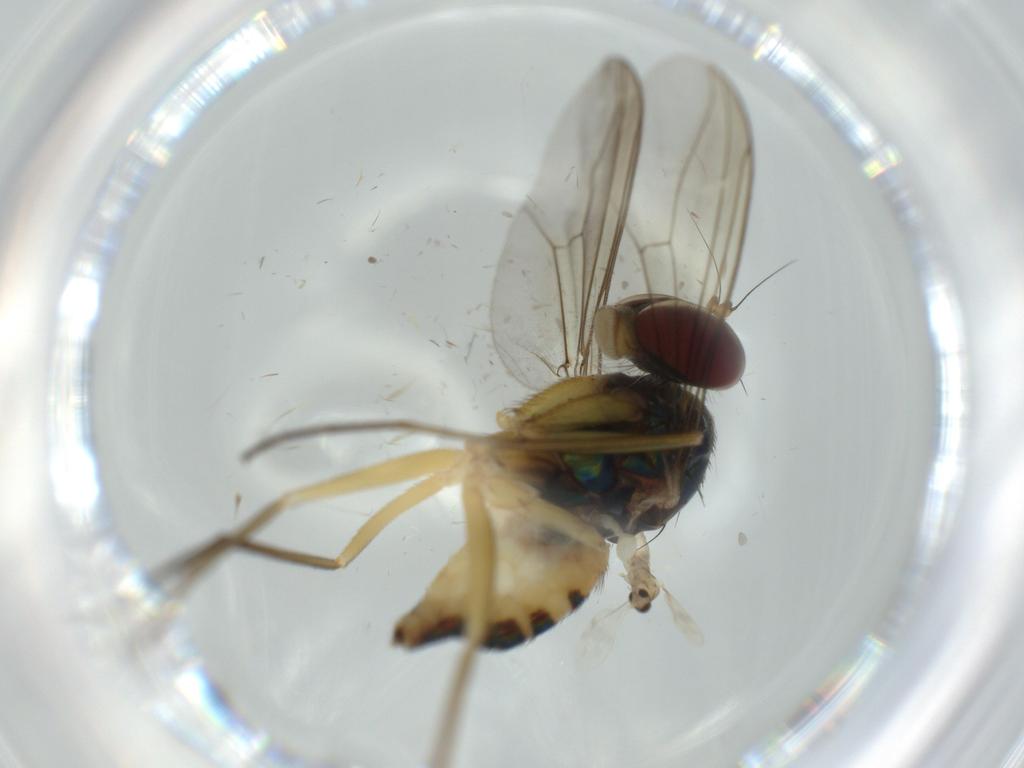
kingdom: Animalia
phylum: Arthropoda
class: Insecta
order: Diptera
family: Dolichopodidae
